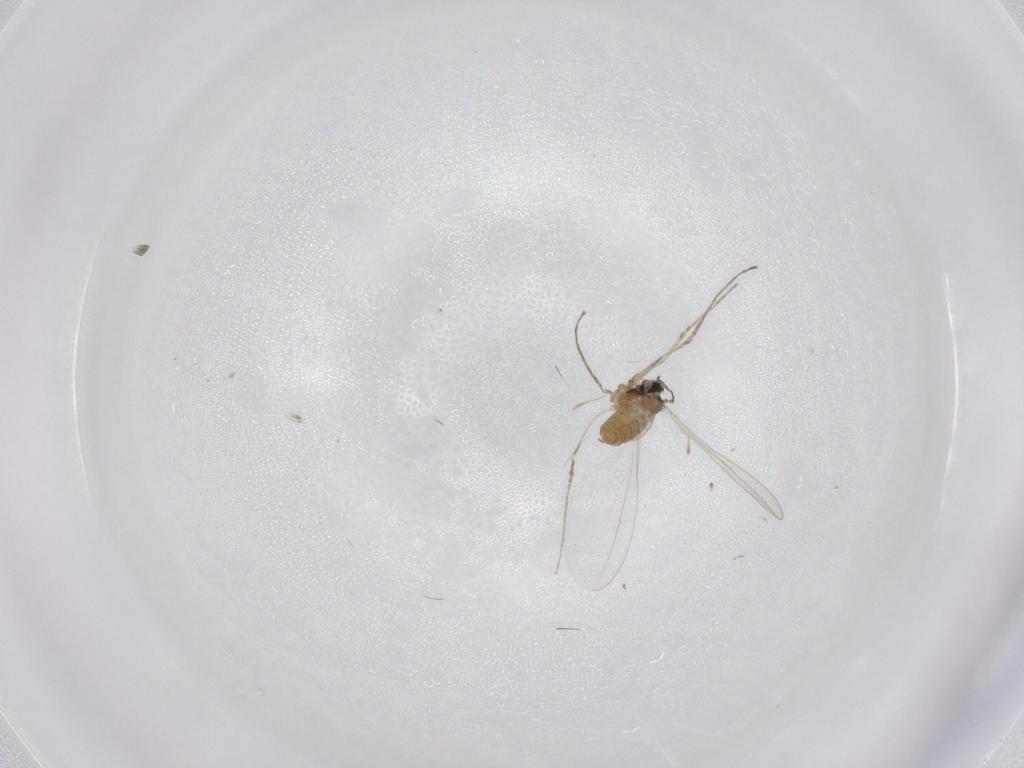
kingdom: Animalia
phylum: Arthropoda
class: Insecta
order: Diptera
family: Cecidomyiidae
